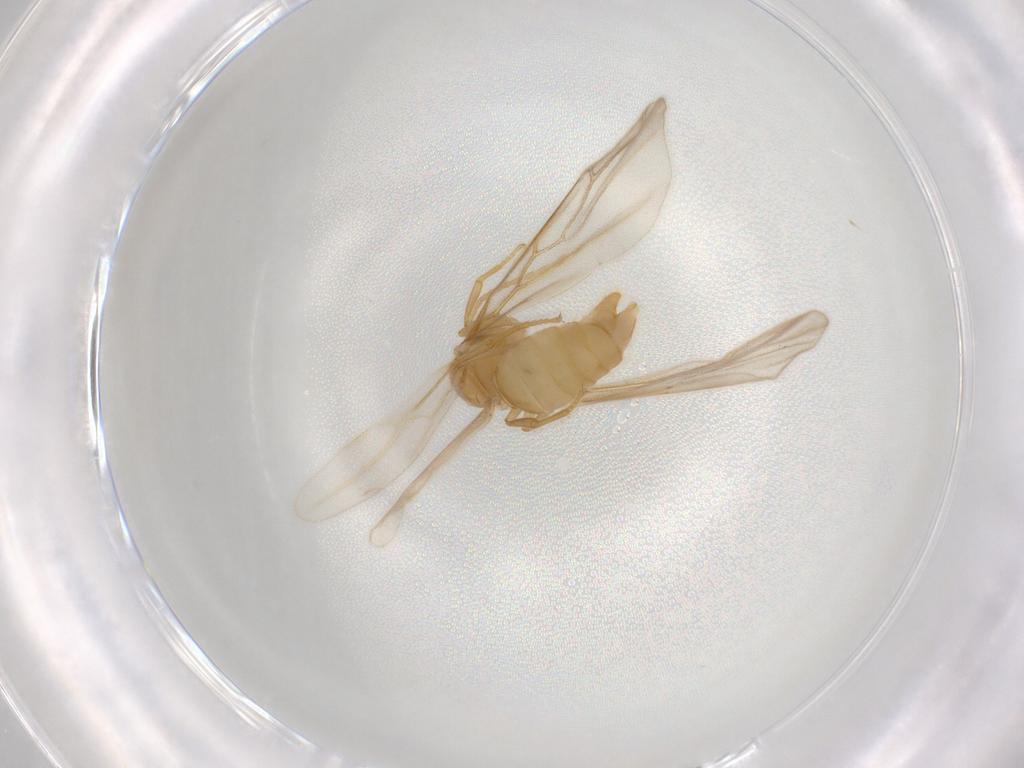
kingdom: Animalia
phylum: Arthropoda
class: Insecta
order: Hymenoptera
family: Formicidae
